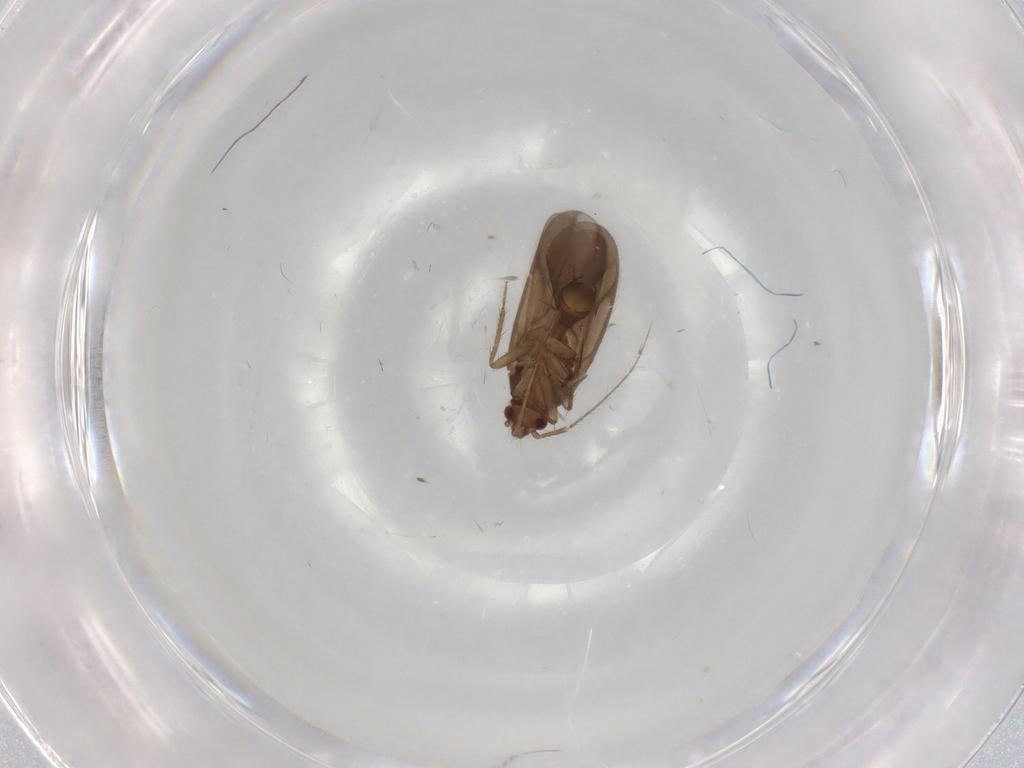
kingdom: Animalia
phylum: Arthropoda
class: Insecta
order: Hemiptera
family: Ceratocombidae
